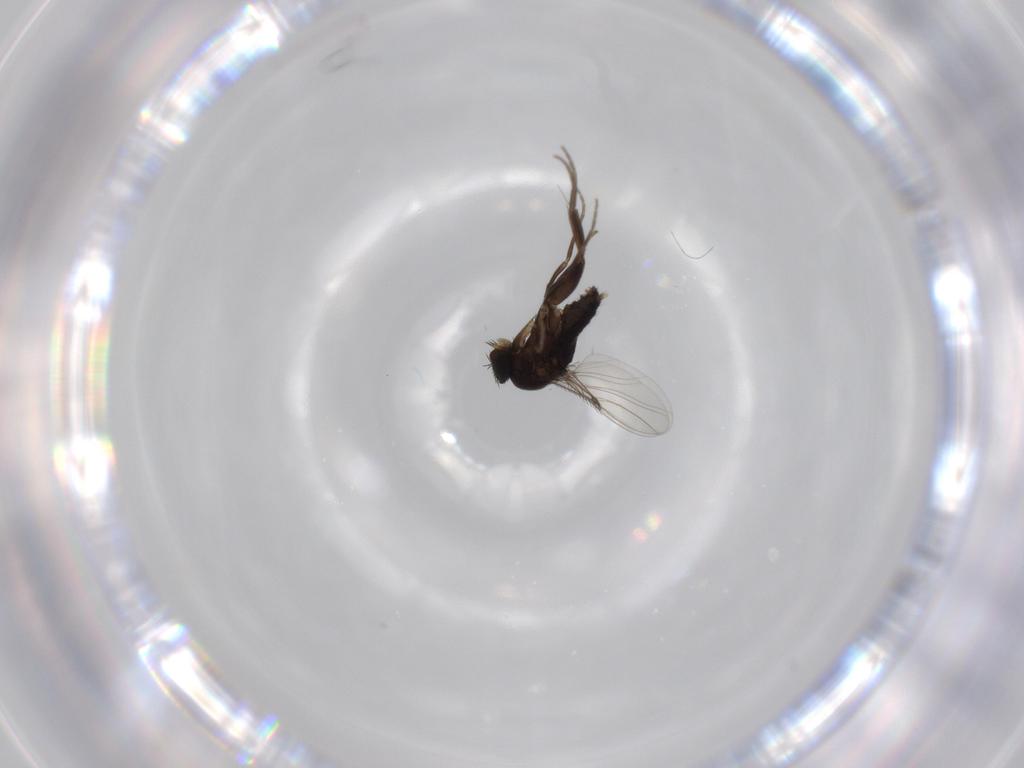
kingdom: Animalia
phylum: Arthropoda
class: Insecta
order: Diptera
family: Phoridae
